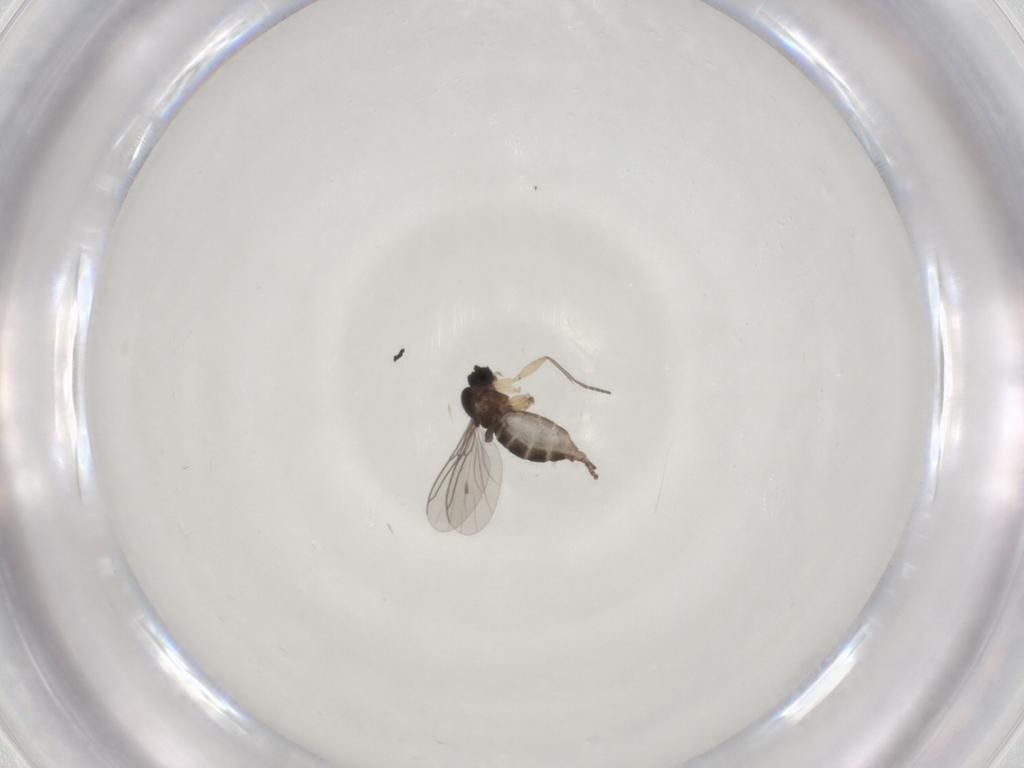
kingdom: Animalia
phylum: Arthropoda
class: Insecta
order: Diptera
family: Sciaridae
